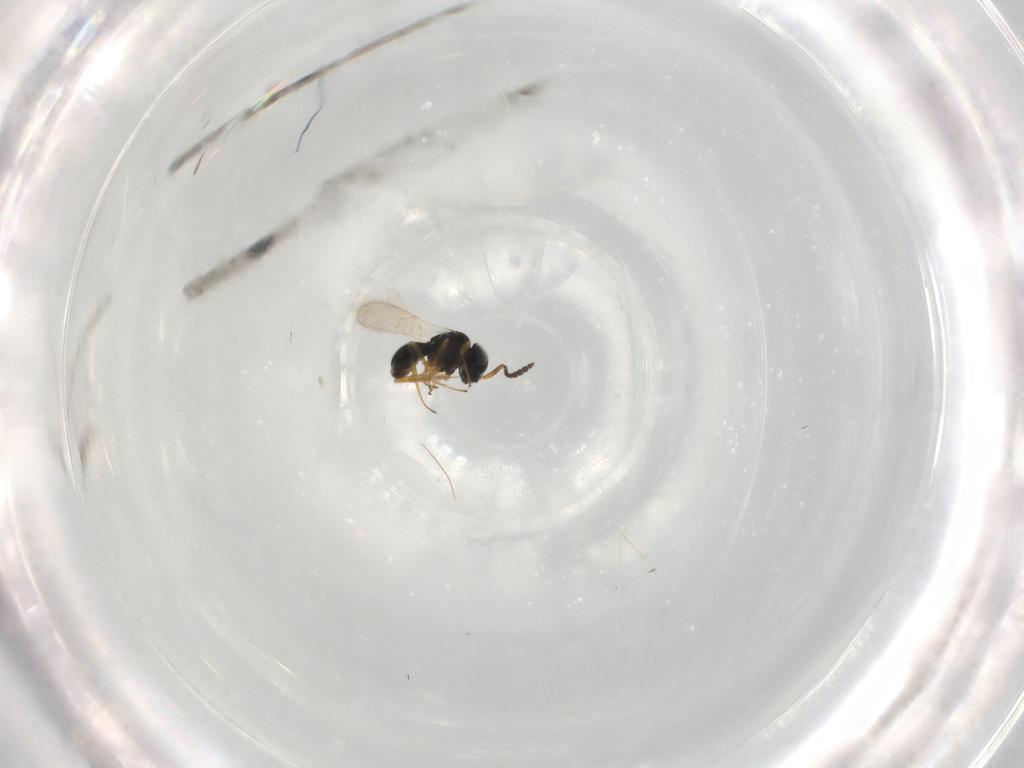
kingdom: Animalia
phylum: Arthropoda
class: Insecta
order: Hymenoptera
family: Scelionidae
